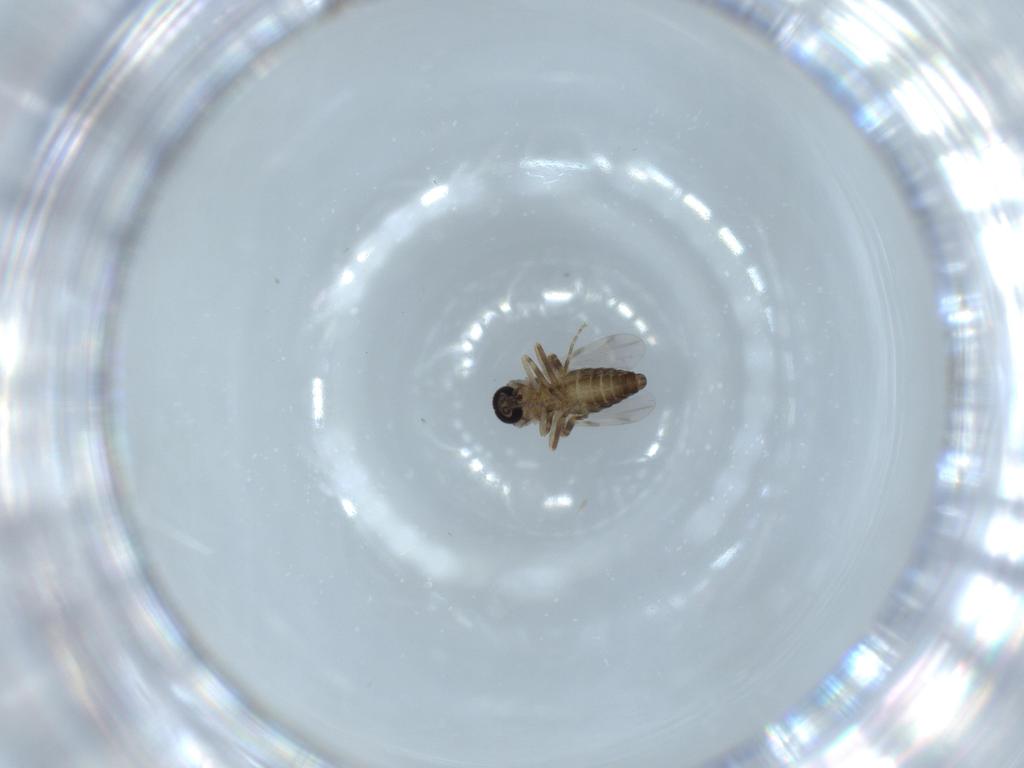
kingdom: Animalia
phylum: Arthropoda
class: Insecta
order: Diptera
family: Ceratopogonidae
